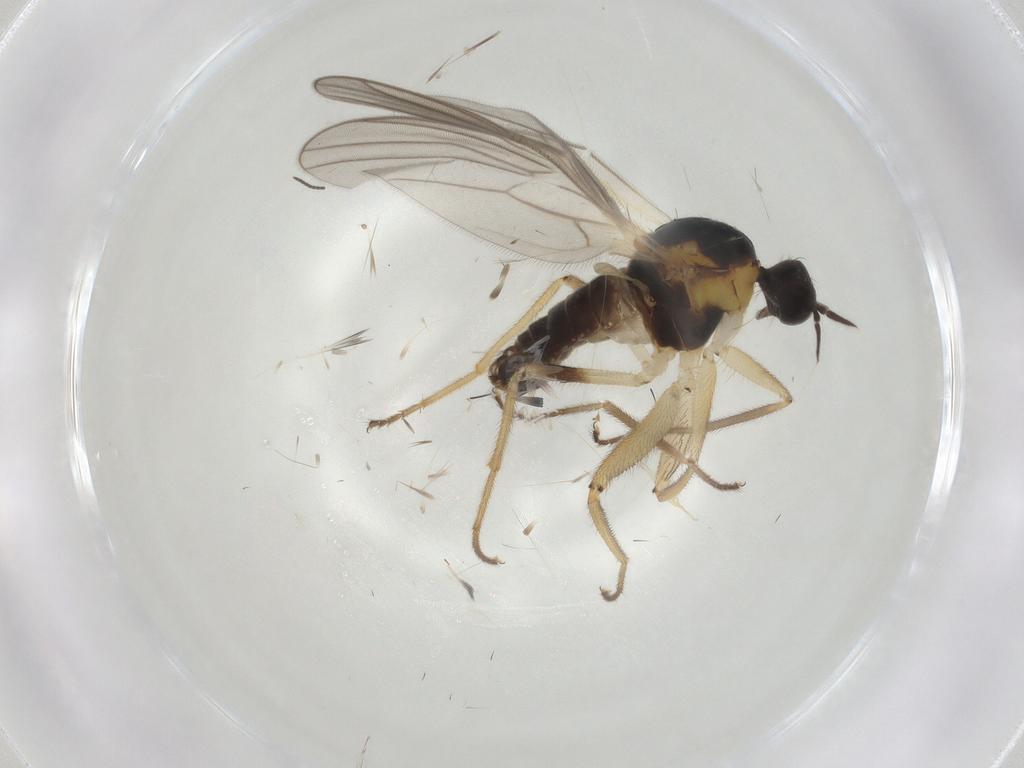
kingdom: Animalia
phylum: Arthropoda
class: Insecta
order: Diptera
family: Hybotidae
